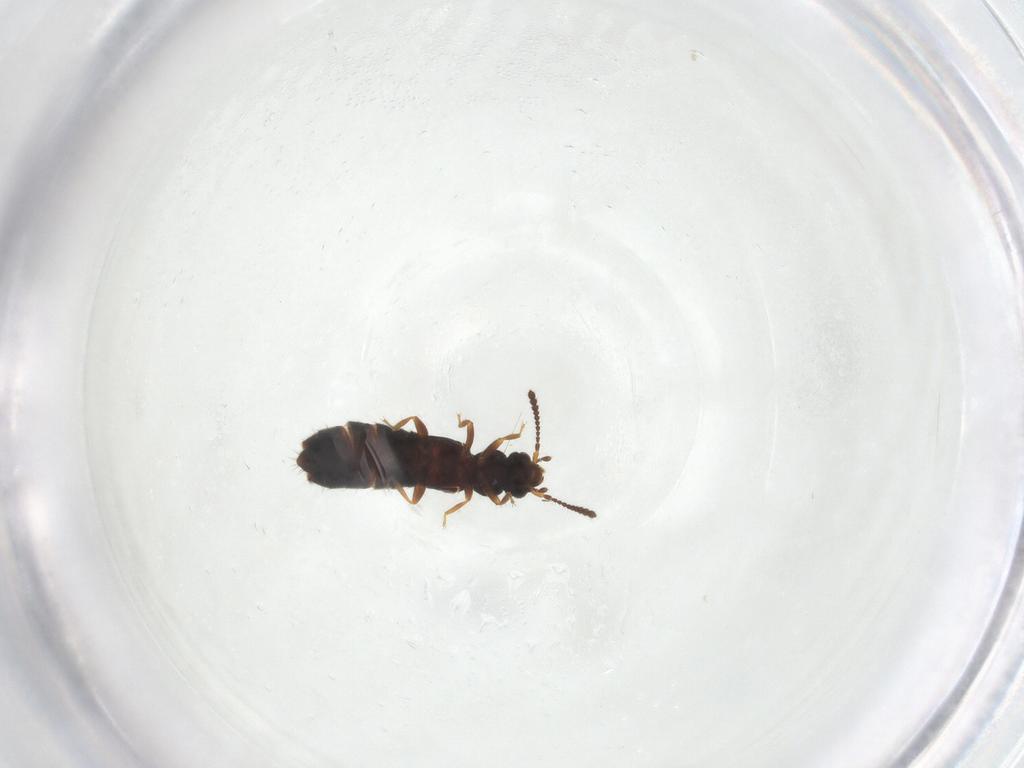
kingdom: Animalia
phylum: Arthropoda
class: Insecta
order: Coleoptera
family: Staphylinidae
